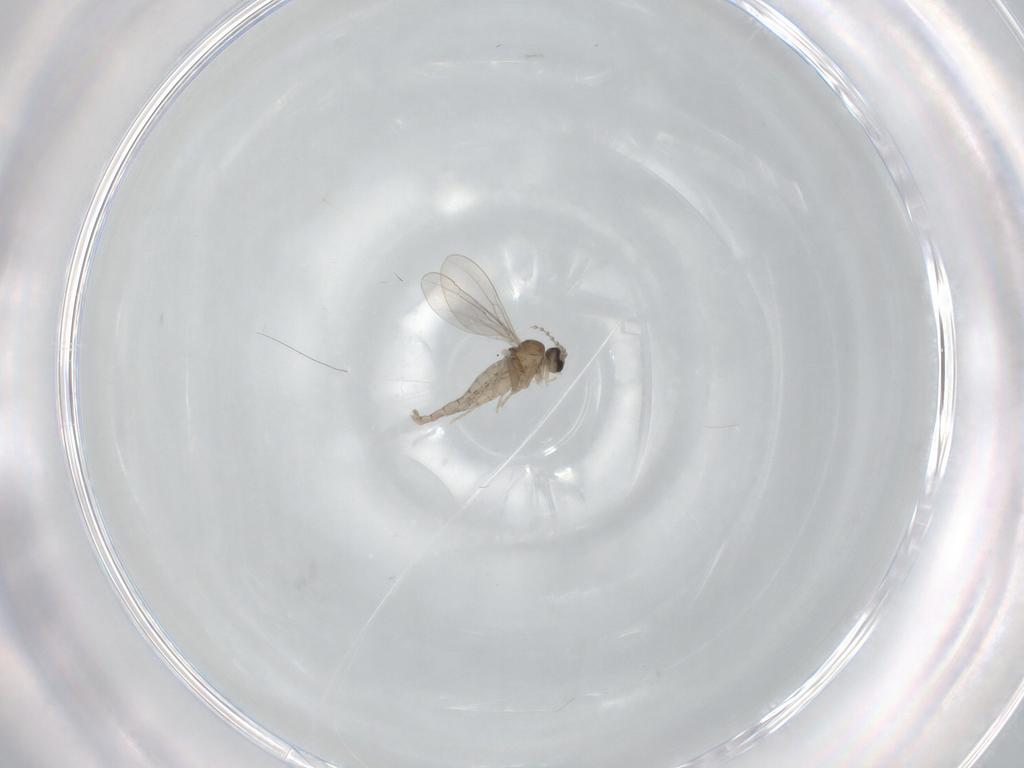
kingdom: Animalia
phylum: Arthropoda
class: Insecta
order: Diptera
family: Cecidomyiidae
